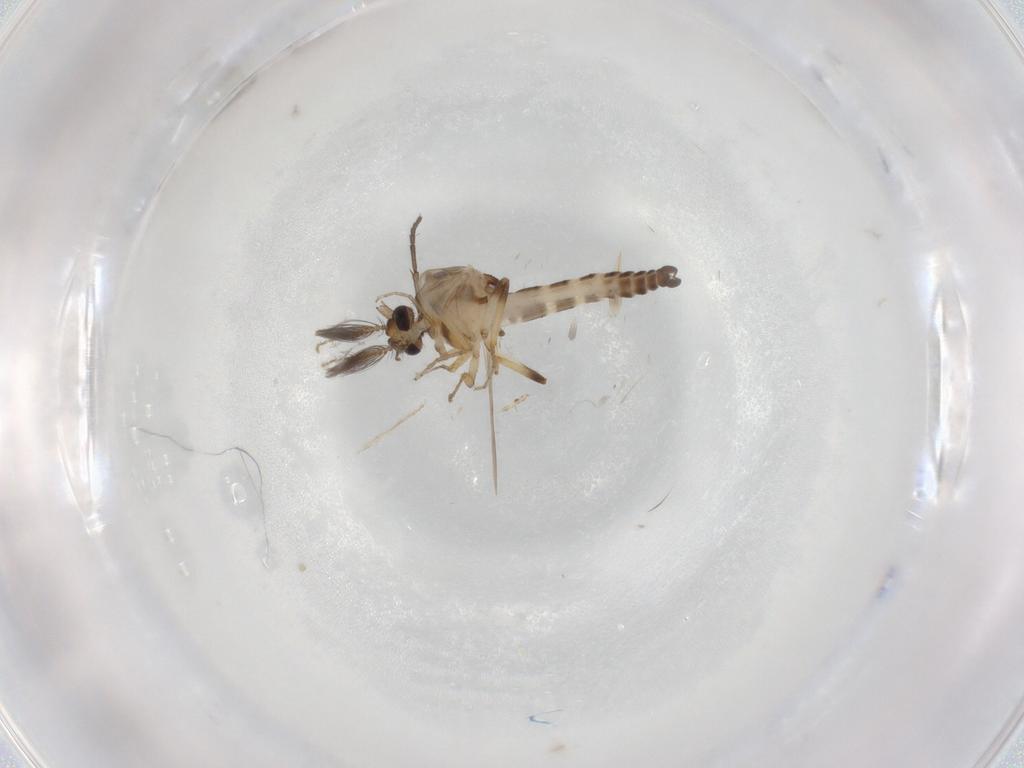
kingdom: Animalia
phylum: Arthropoda
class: Insecta
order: Diptera
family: Ceratopogonidae
